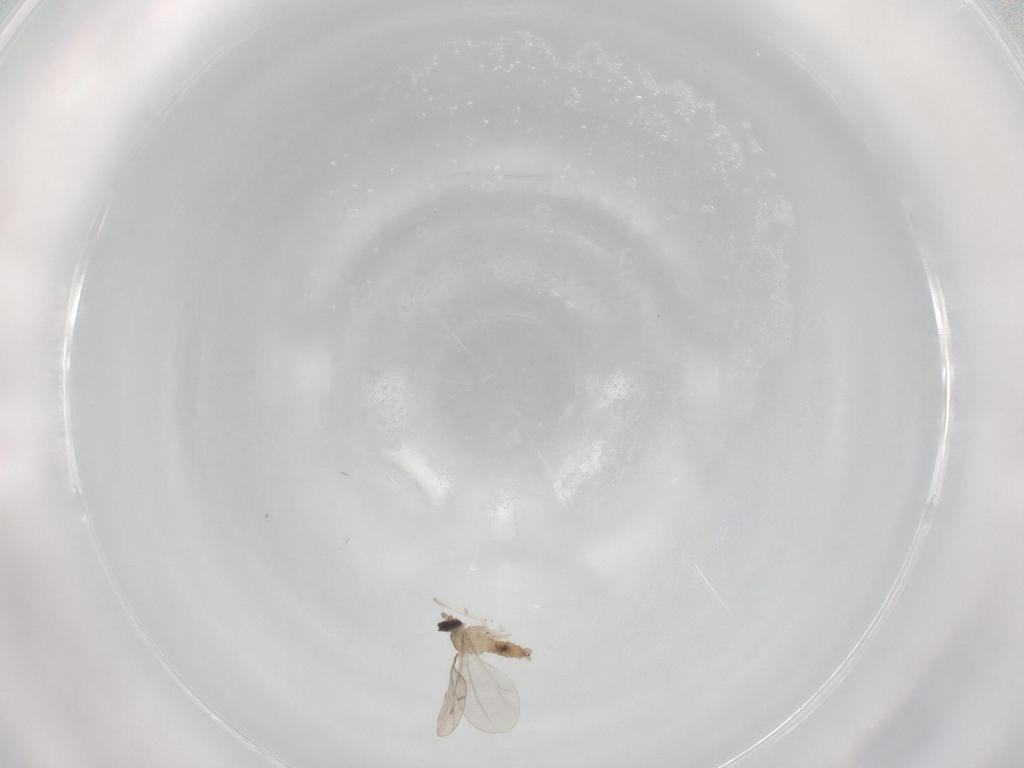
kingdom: Animalia
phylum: Arthropoda
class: Insecta
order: Diptera
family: Cecidomyiidae
